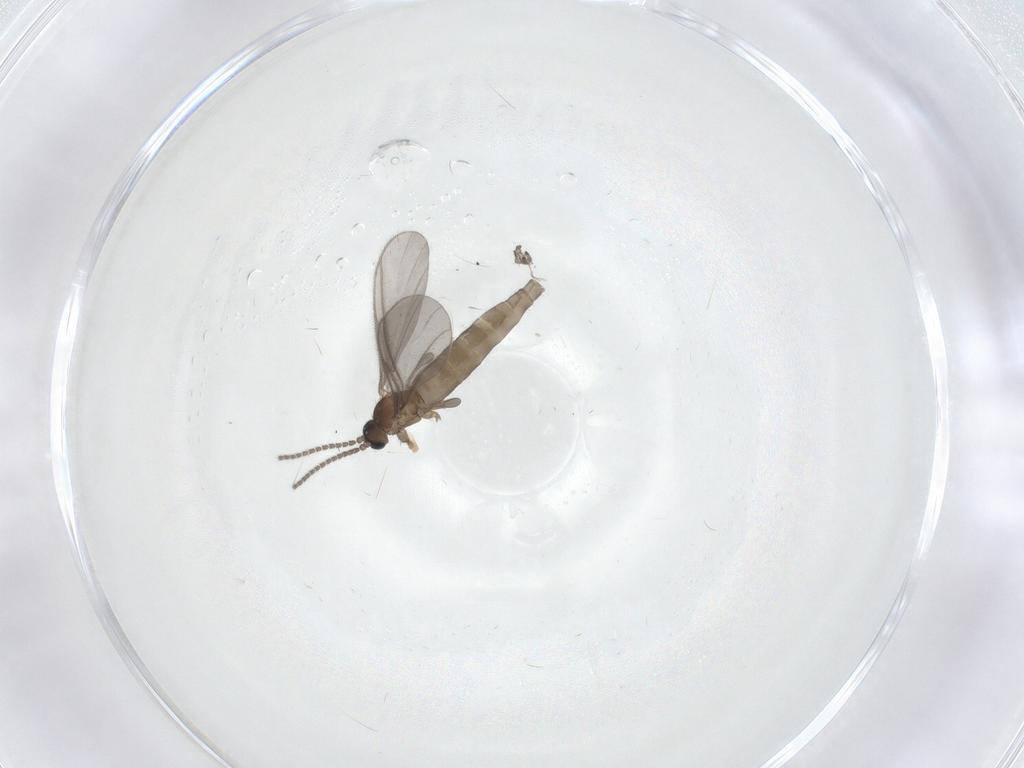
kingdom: Animalia
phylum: Arthropoda
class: Insecta
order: Diptera
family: Sciaridae
